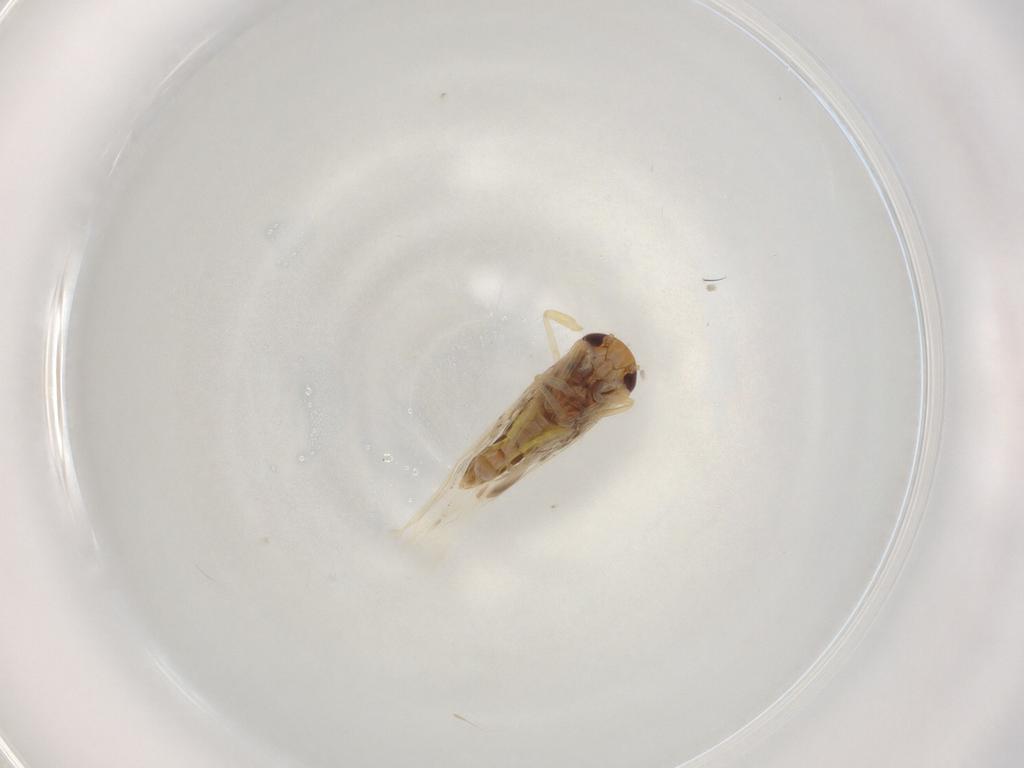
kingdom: Animalia
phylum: Arthropoda
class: Insecta
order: Hemiptera
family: Cicadellidae
